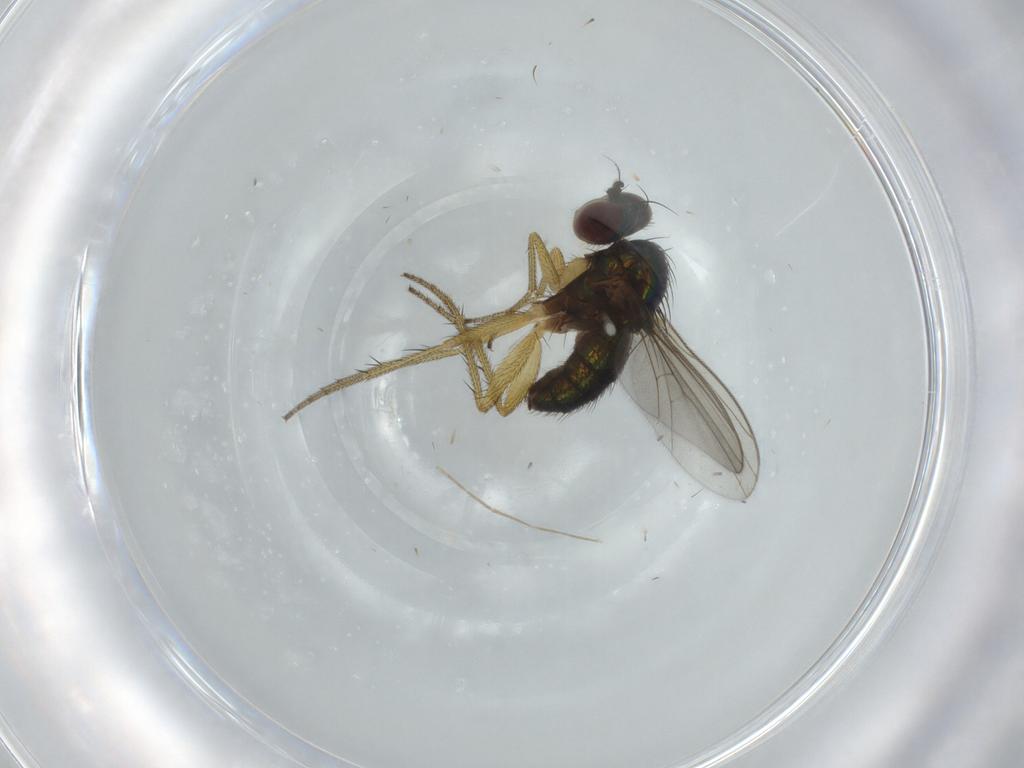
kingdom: Animalia
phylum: Arthropoda
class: Insecta
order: Diptera
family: Dolichopodidae
